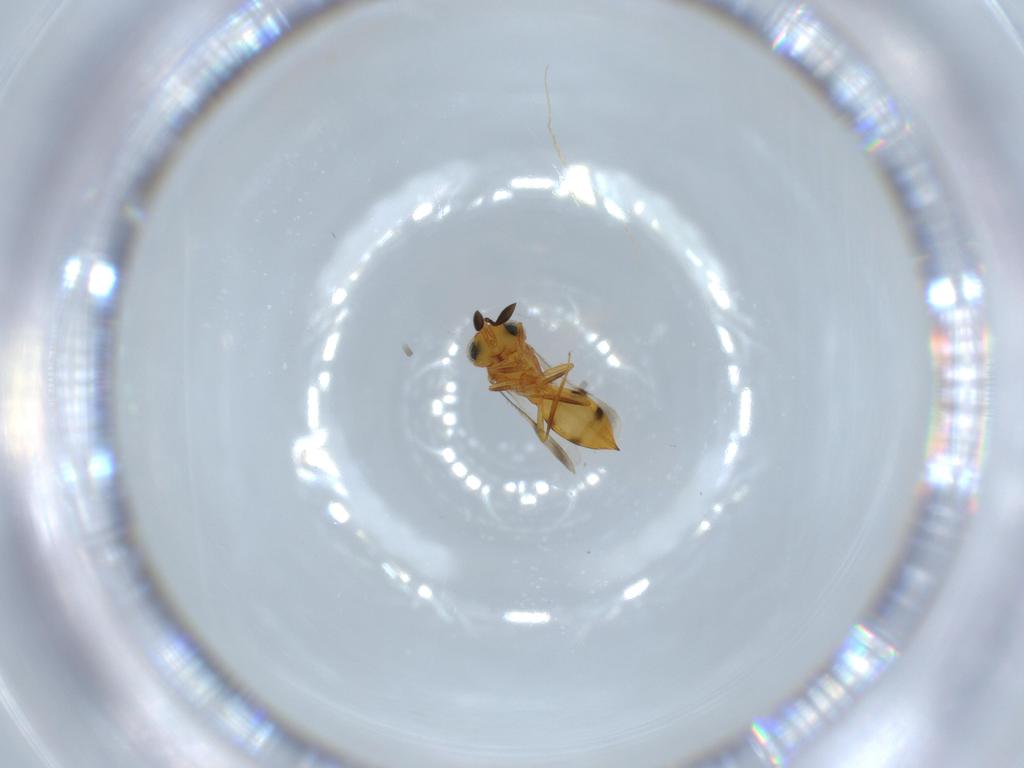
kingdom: Animalia
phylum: Arthropoda
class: Insecta
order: Hymenoptera
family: Scelionidae
